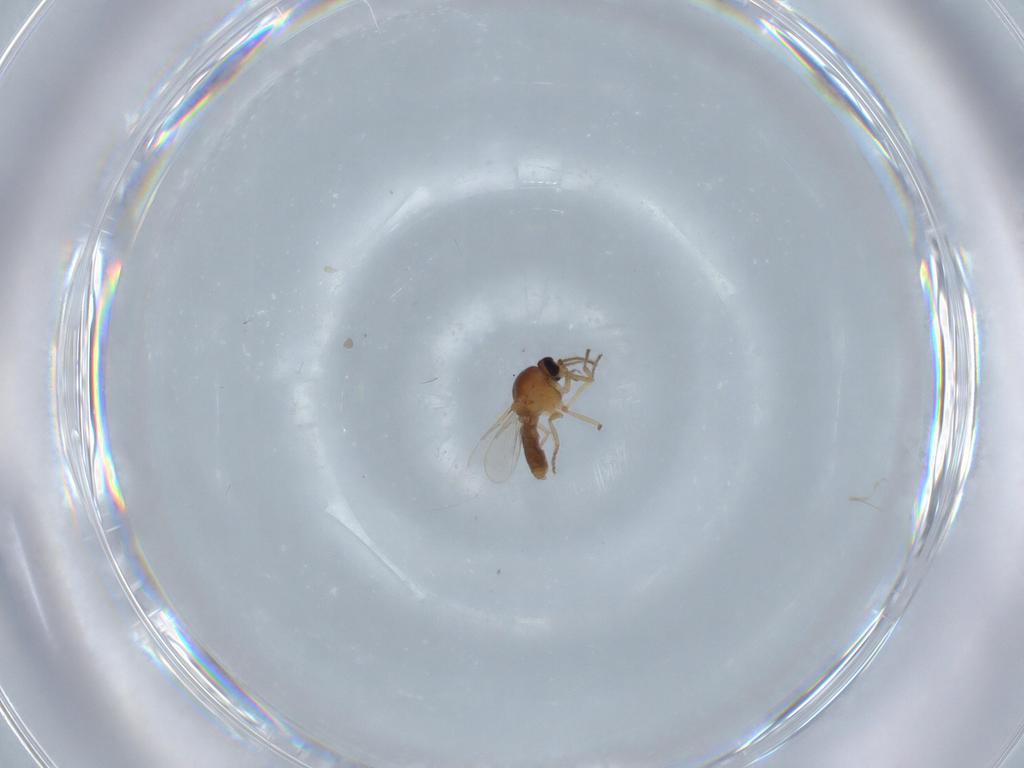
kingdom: Animalia
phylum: Arthropoda
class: Insecta
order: Diptera
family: Ceratopogonidae
